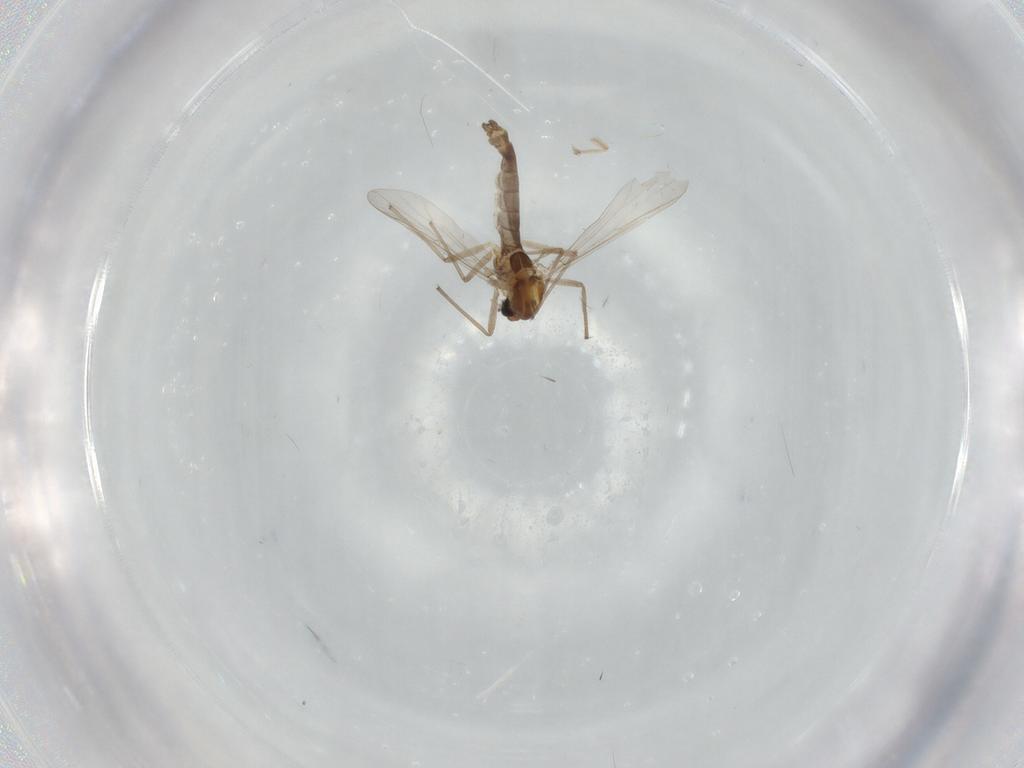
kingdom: Animalia
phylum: Arthropoda
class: Insecta
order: Diptera
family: Chironomidae
